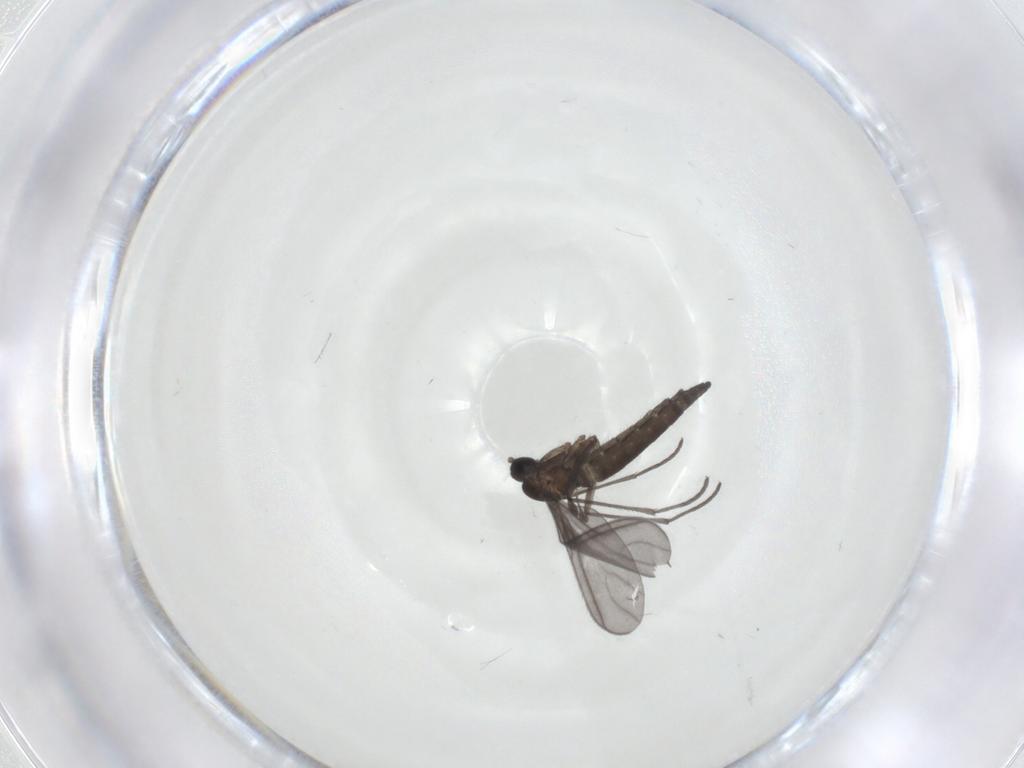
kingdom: Animalia
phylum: Arthropoda
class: Insecta
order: Diptera
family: Sciaridae
